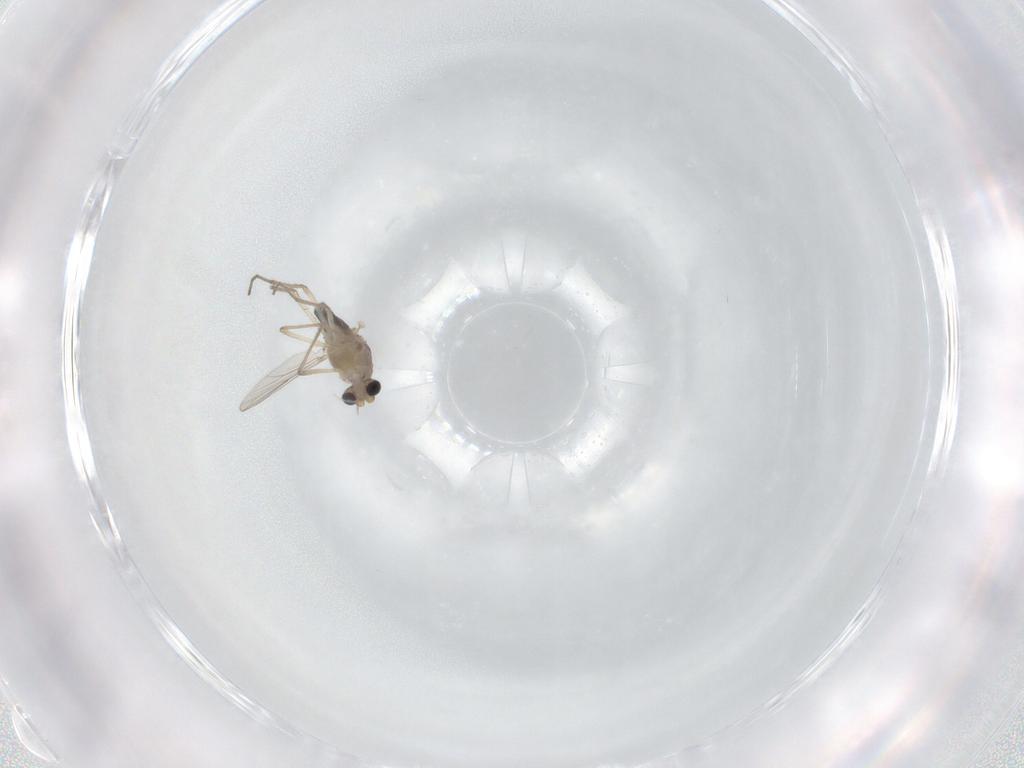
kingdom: Animalia
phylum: Arthropoda
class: Insecta
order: Diptera
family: Chironomidae
